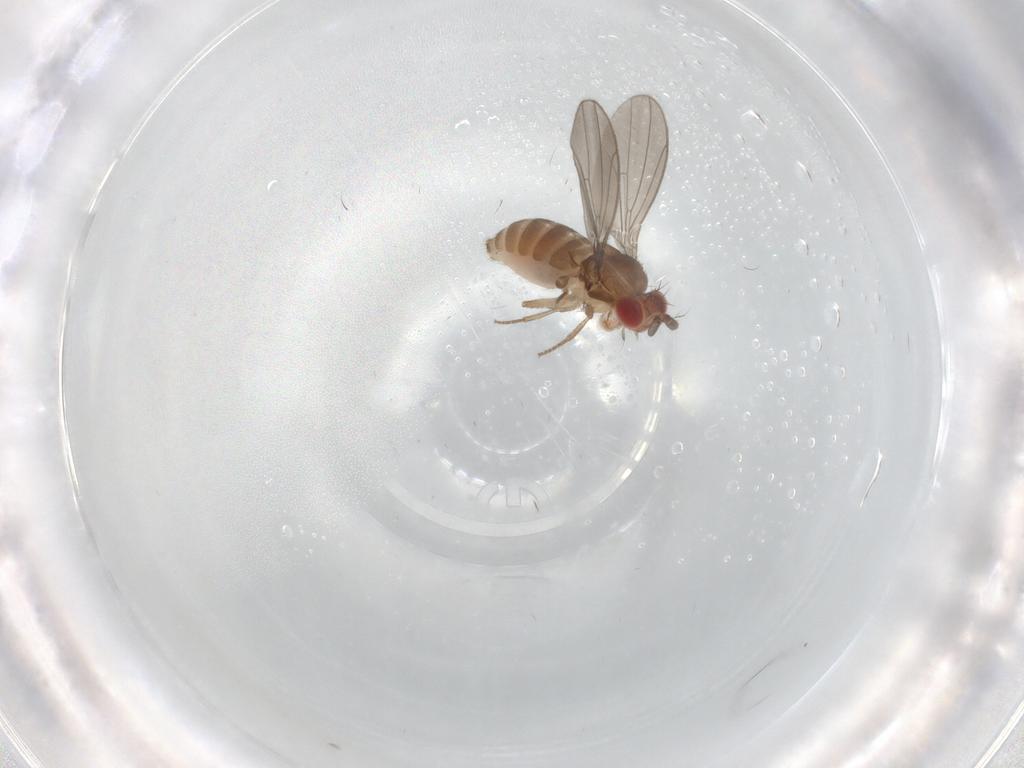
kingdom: Animalia
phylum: Arthropoda
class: Insecta
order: Diptera
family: Drosophilidae
